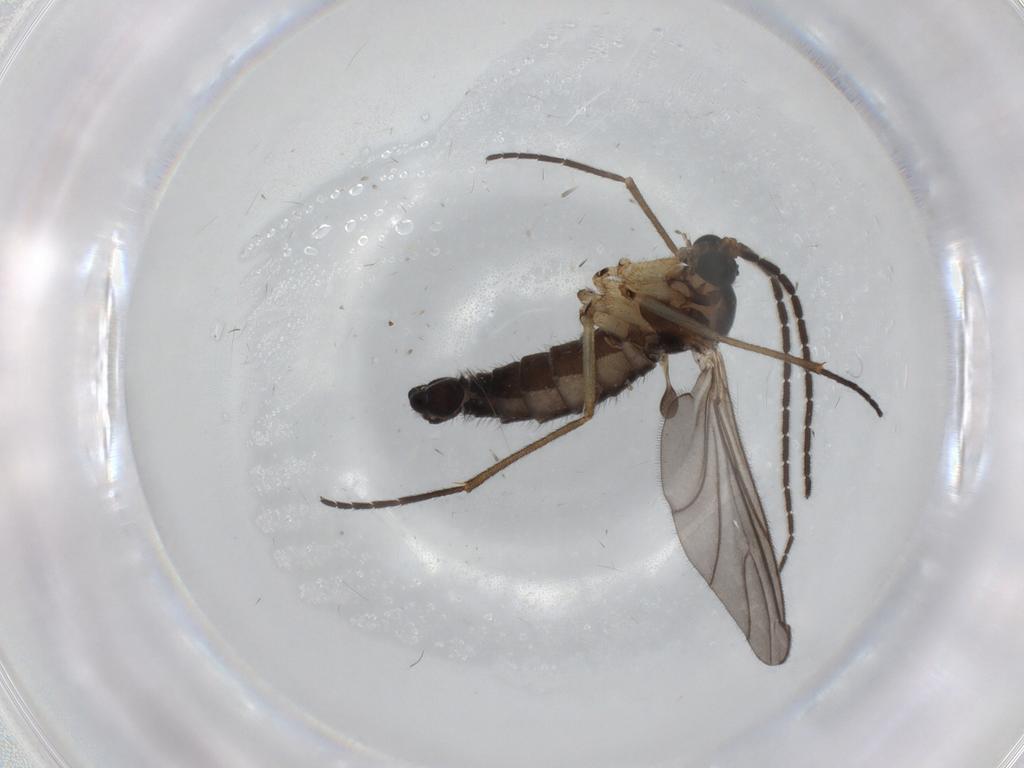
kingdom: Animalia
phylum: Arthropoda
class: Insecta
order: Diptera
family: Sciaridae
